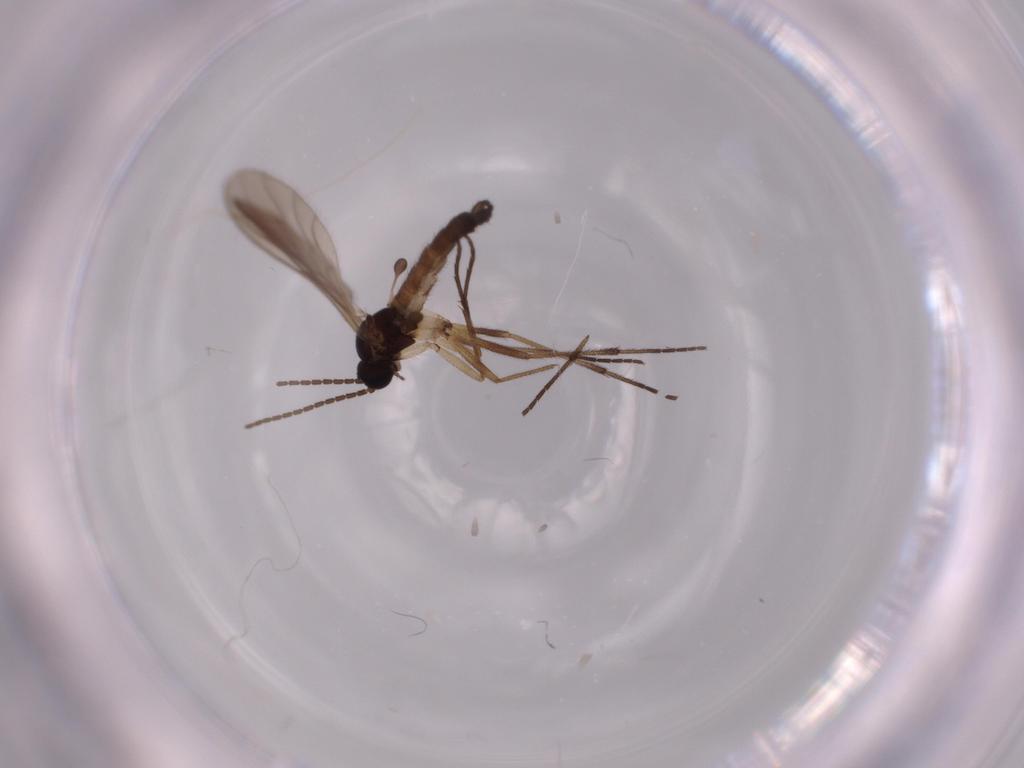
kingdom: Animalia
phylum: Arthropoda
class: Insecta
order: Diptera
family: Sciaridae
